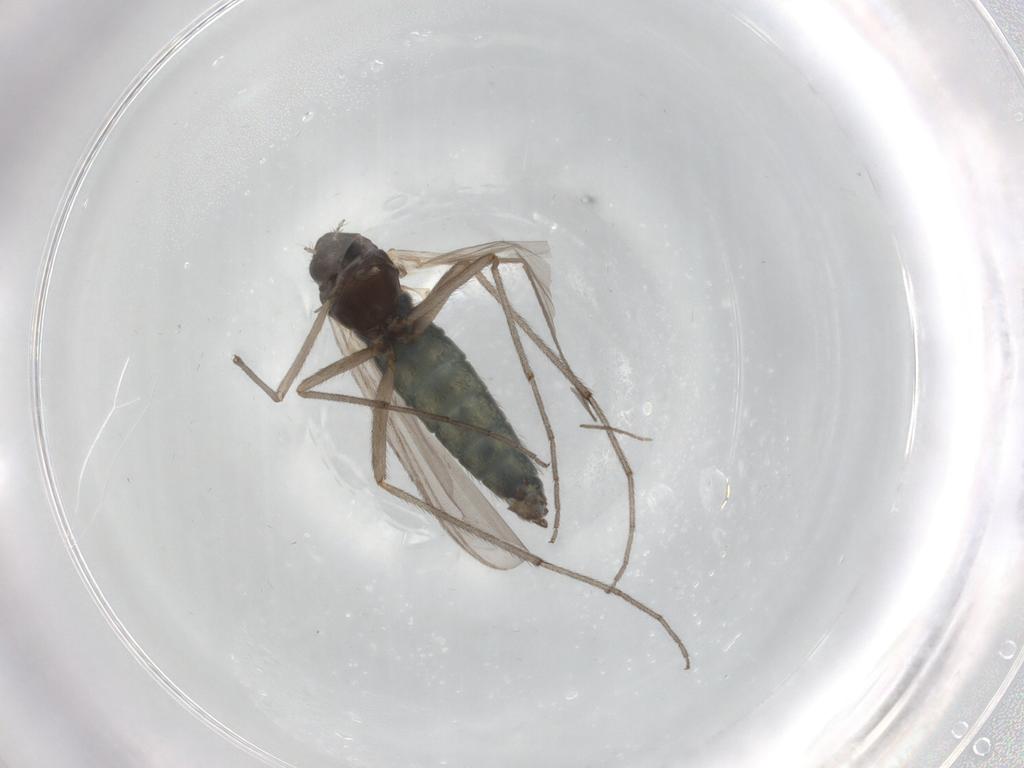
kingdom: Animalia
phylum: Arthropoda
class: Insecta
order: Diptera
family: Chironomidae
